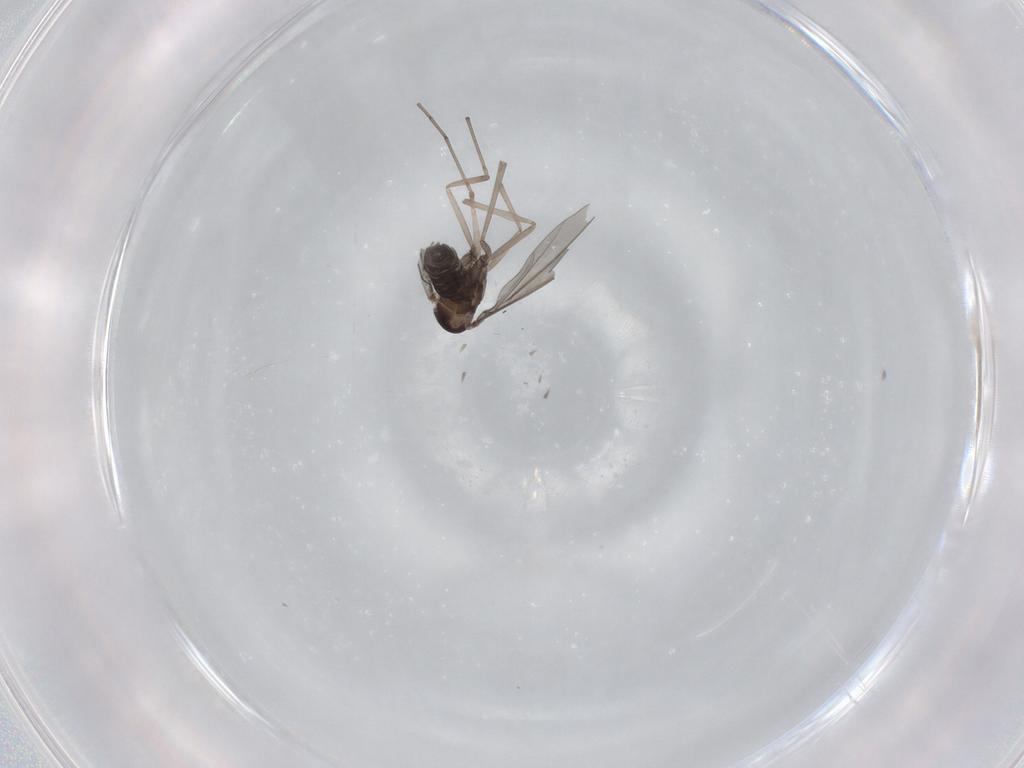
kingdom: Animalia
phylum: Arthropoda
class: Insecta
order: Diptera
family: Cecidomyiidae
